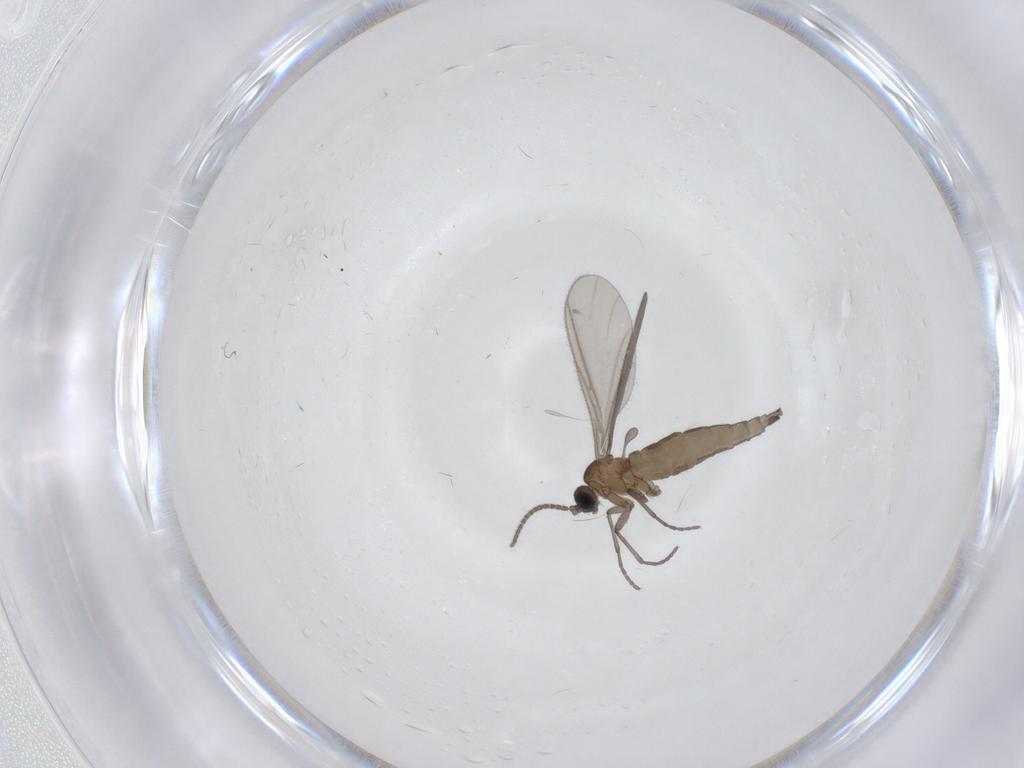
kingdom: Animalia
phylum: Arthropoda
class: Insecta
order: Diptera
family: Sciaridae
